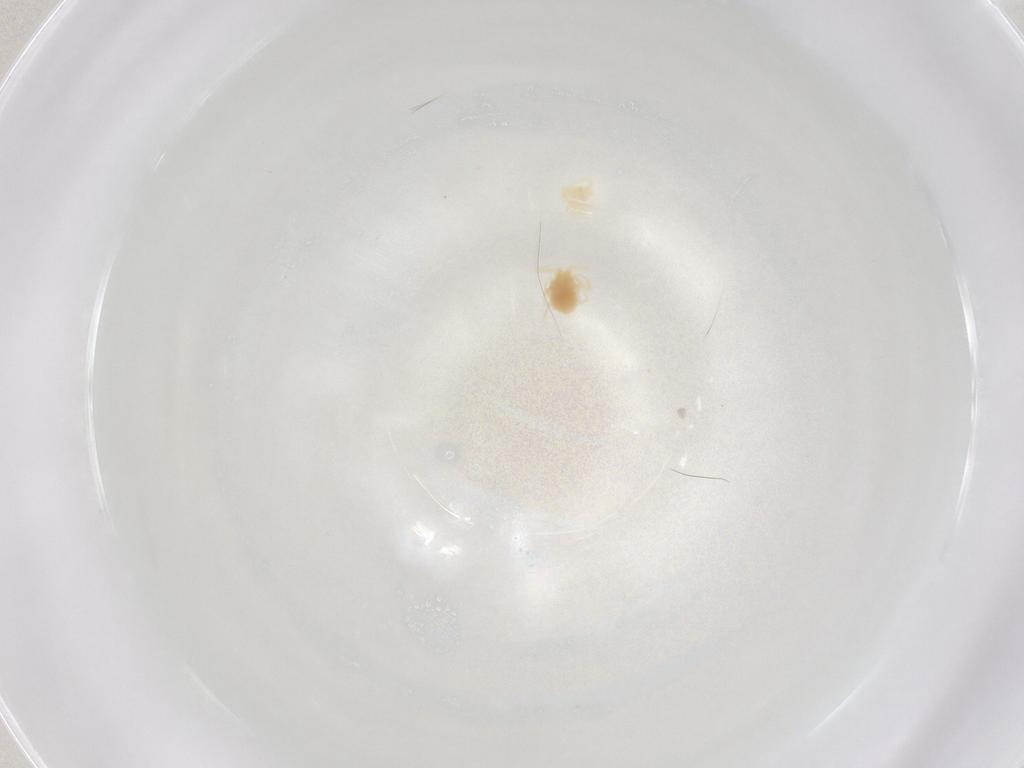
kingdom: Animalia
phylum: Arthropoda
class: Arachnida
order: Trombidiformes
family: Anystidae
